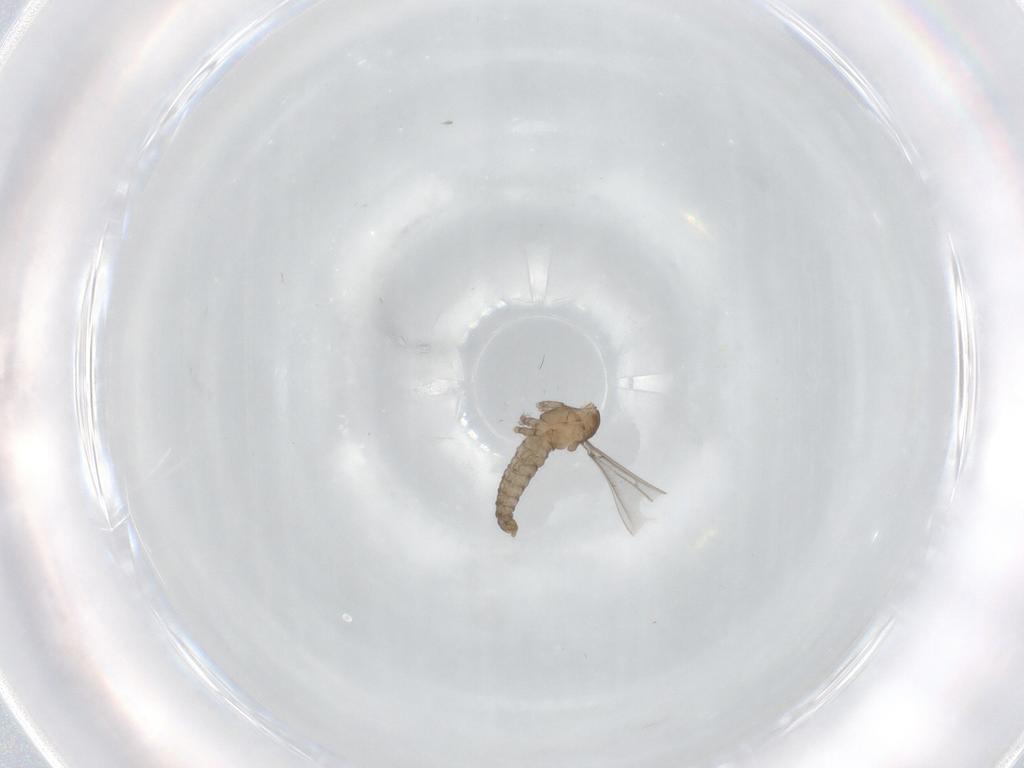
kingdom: Animalia
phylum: Arthropoda
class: Insecta
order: Diptera
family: Cecidomyiidae
